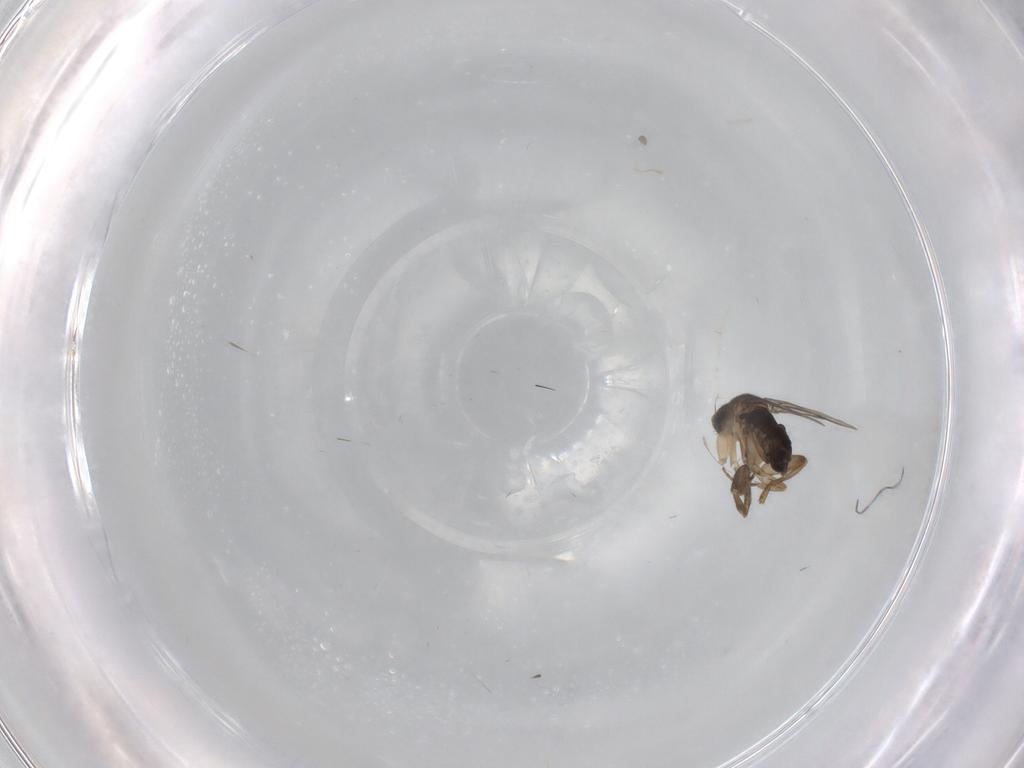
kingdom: Animalia
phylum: Arthropoda
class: Insecta
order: Diptera
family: Phoridae
